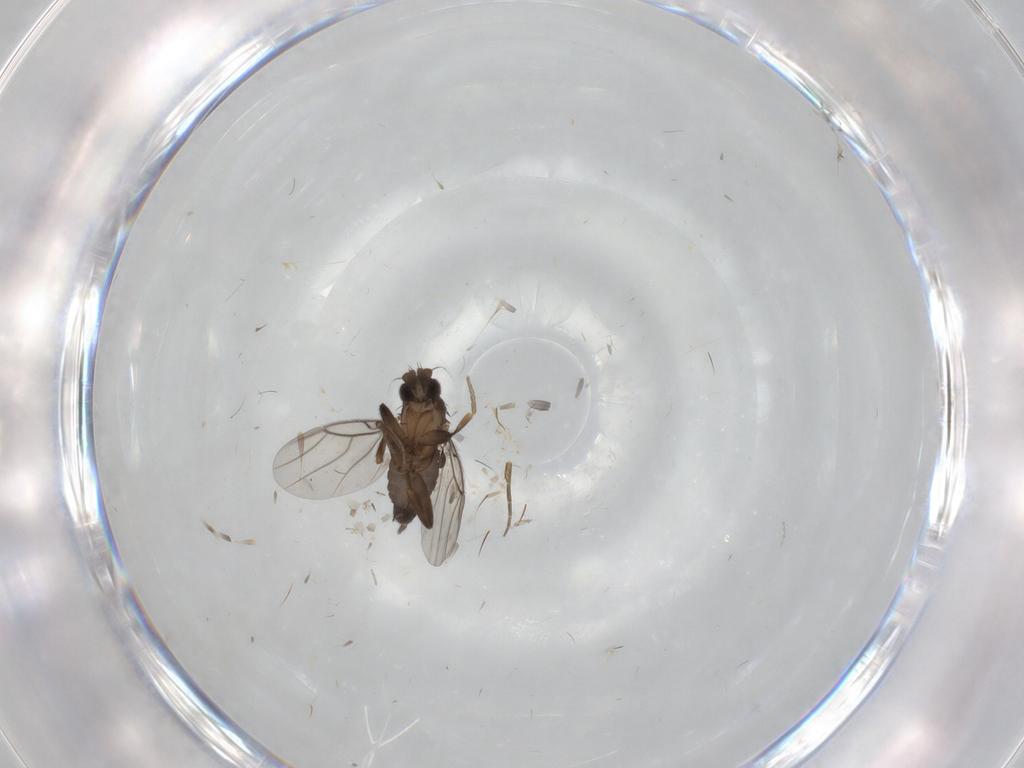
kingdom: Animalia
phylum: Arthropoda
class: Insecta
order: Diptera
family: Phoridae
